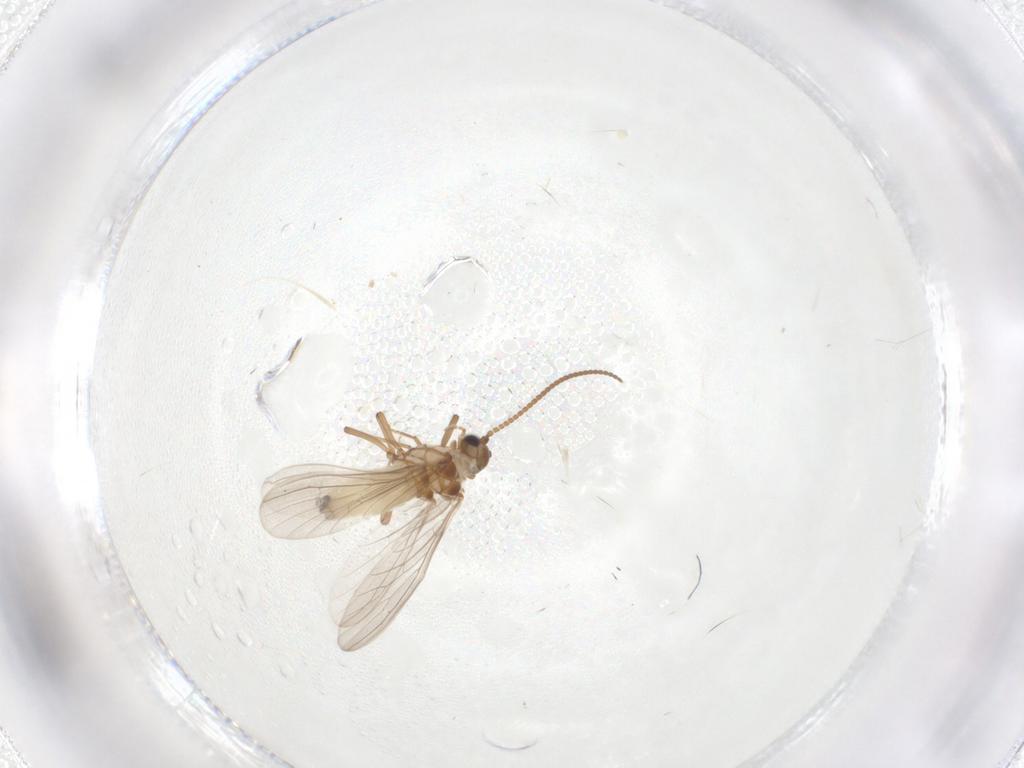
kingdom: Animalia
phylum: Arthropoda
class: Insecta
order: Neuroptera
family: Coniopterygidae
